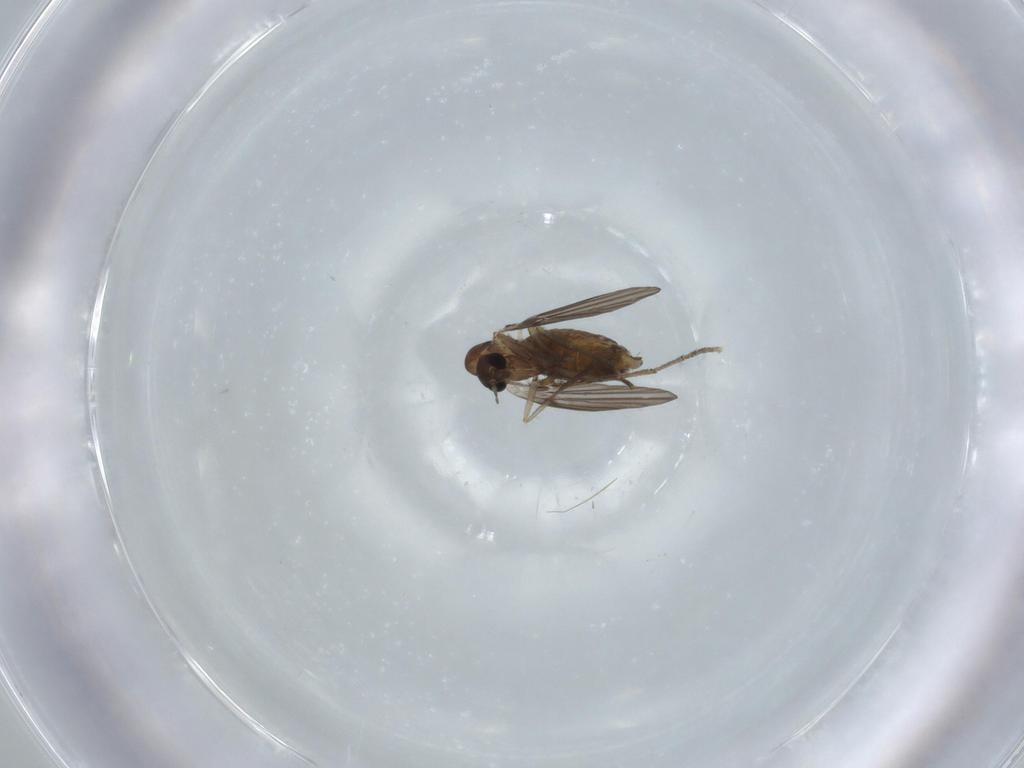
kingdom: Animalia
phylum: Arthropoda
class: Insecta
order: Diptera
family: Psychodidae
